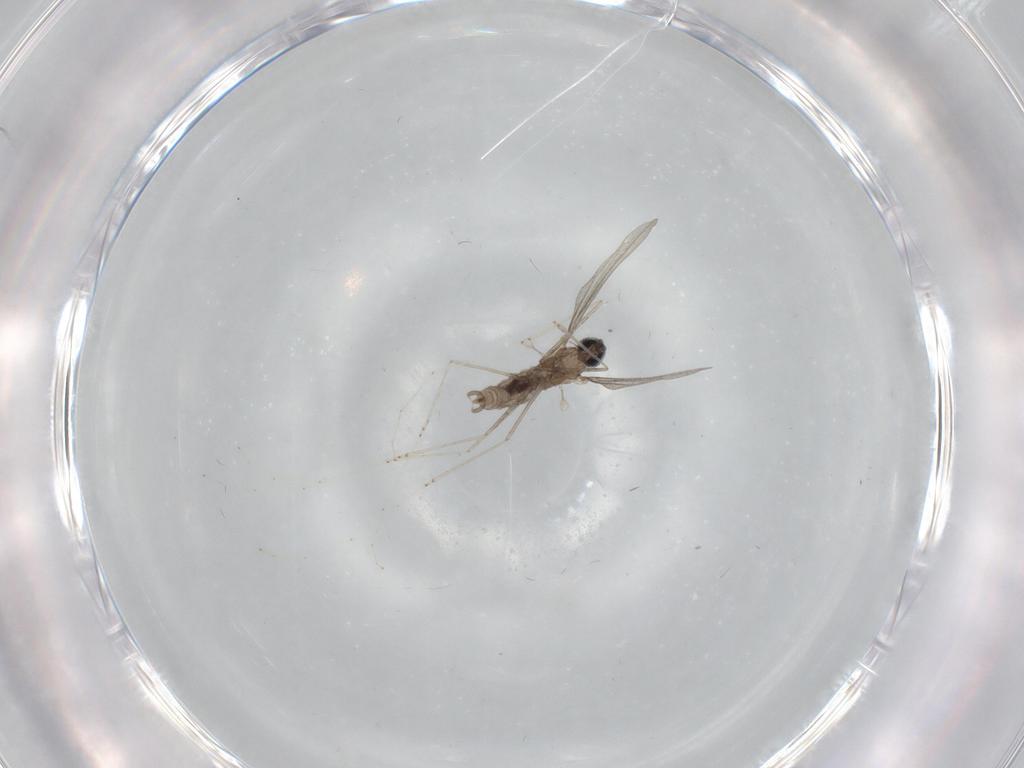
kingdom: Animalia
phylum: Arthropoda
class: Insecta
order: Diptera
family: Cecidomyiidae
